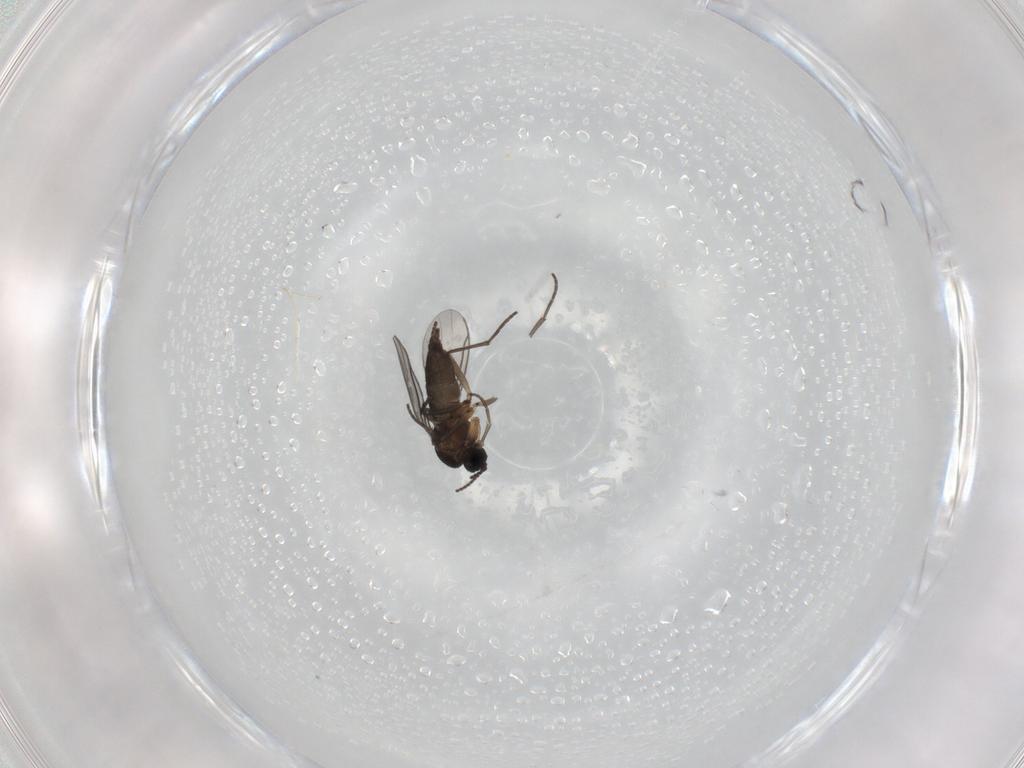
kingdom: Animalia
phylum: Arthropoda
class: Insecta
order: Diptera
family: Sciaridae
